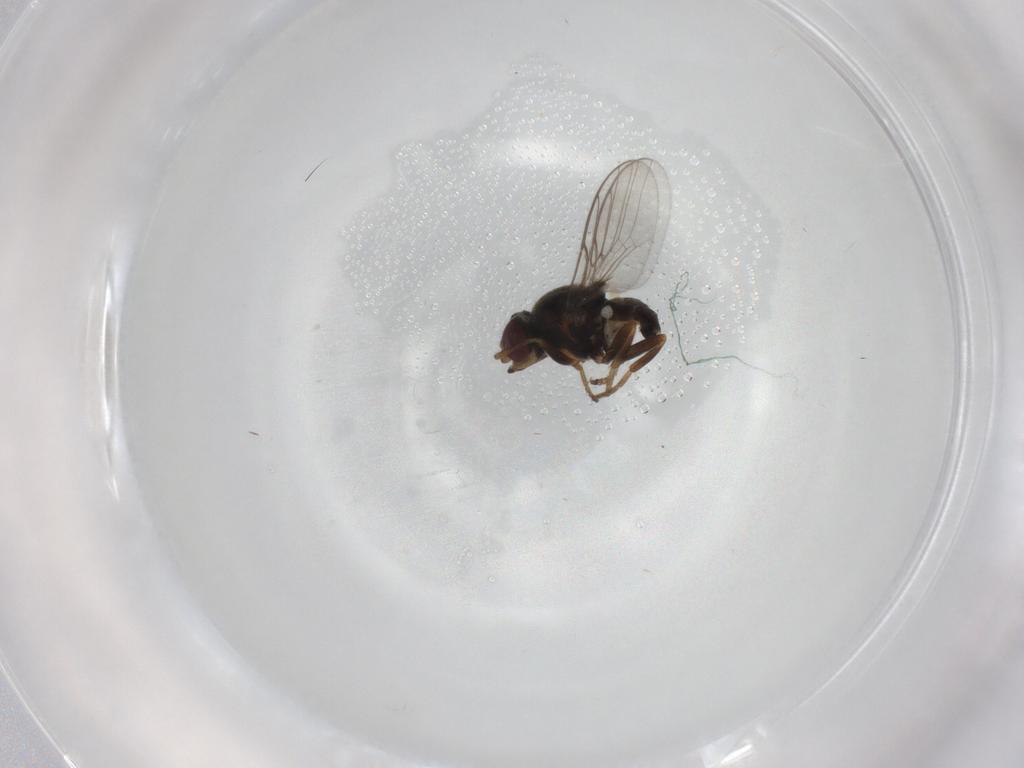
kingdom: Animalia
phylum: Arthropoda
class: Insecta
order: Diptera
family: Chloropidae
